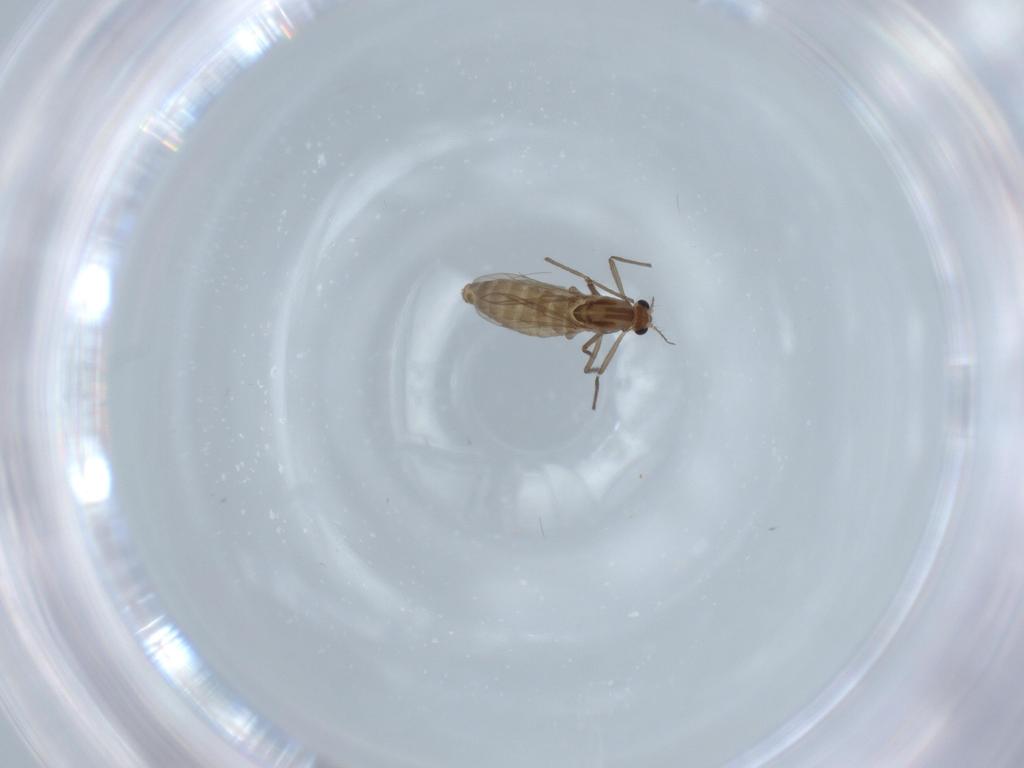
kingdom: Animalia
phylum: Arthropoda
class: Insecta
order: Diptera
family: Chironomidae
